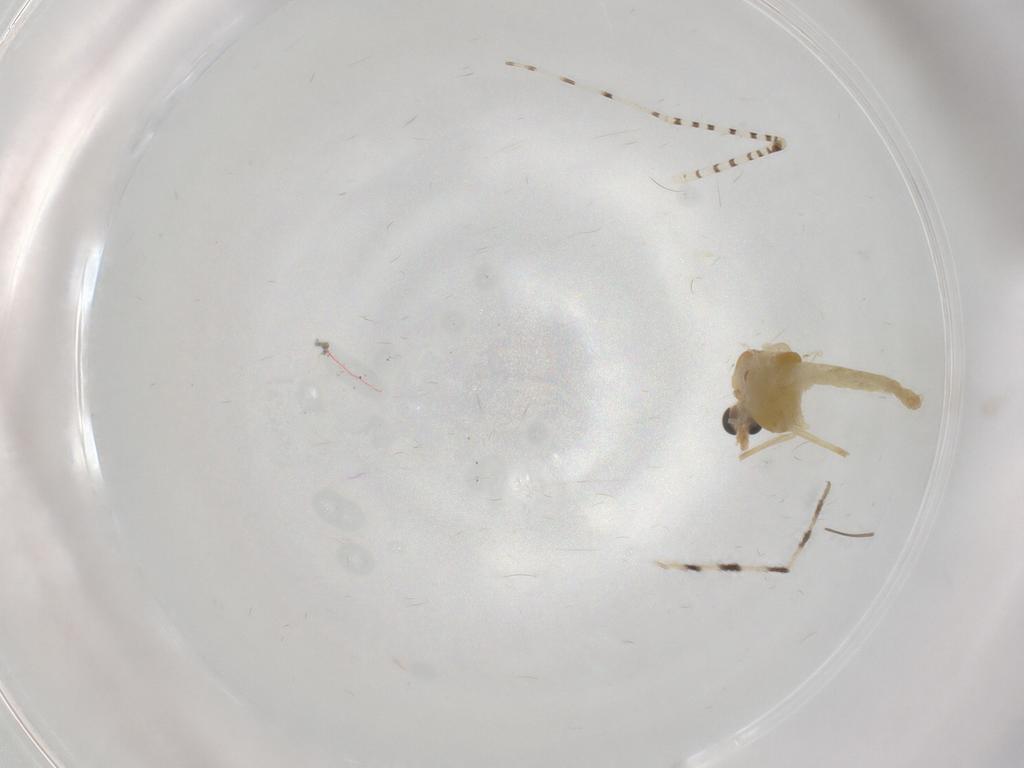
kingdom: Animalia
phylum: Arthropoda
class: Insecta
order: Diptera
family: Chaoboridae
